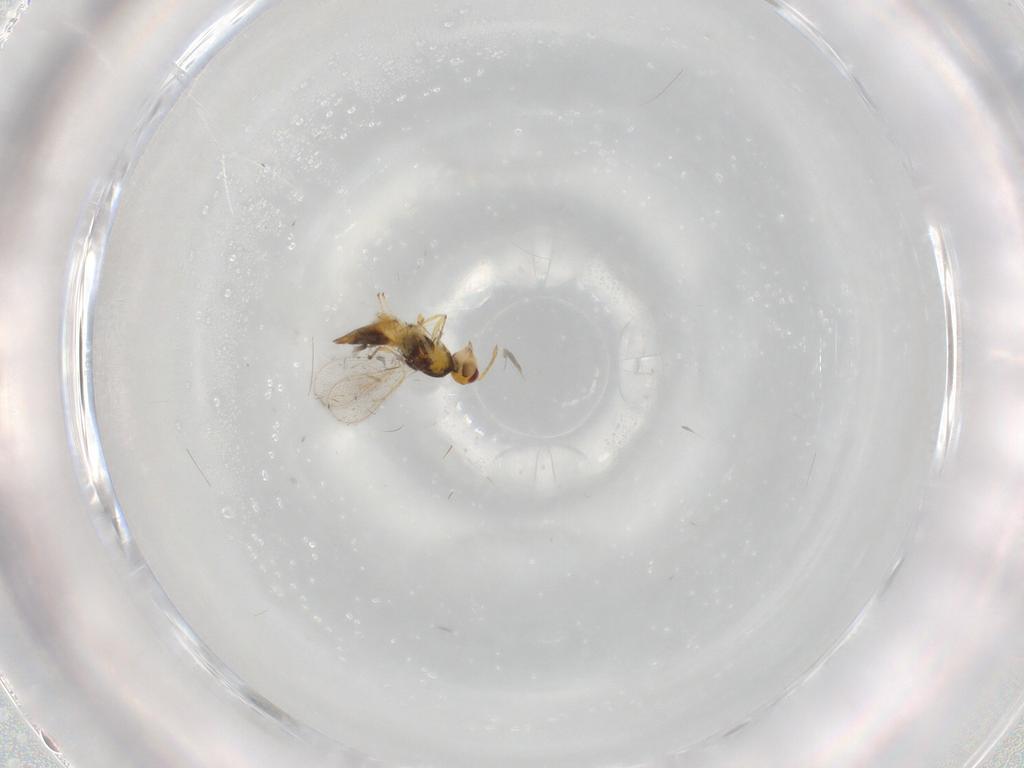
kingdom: Animalia
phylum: Arthropoda
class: Insecta
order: Hymenoptera
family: Eulophidae
